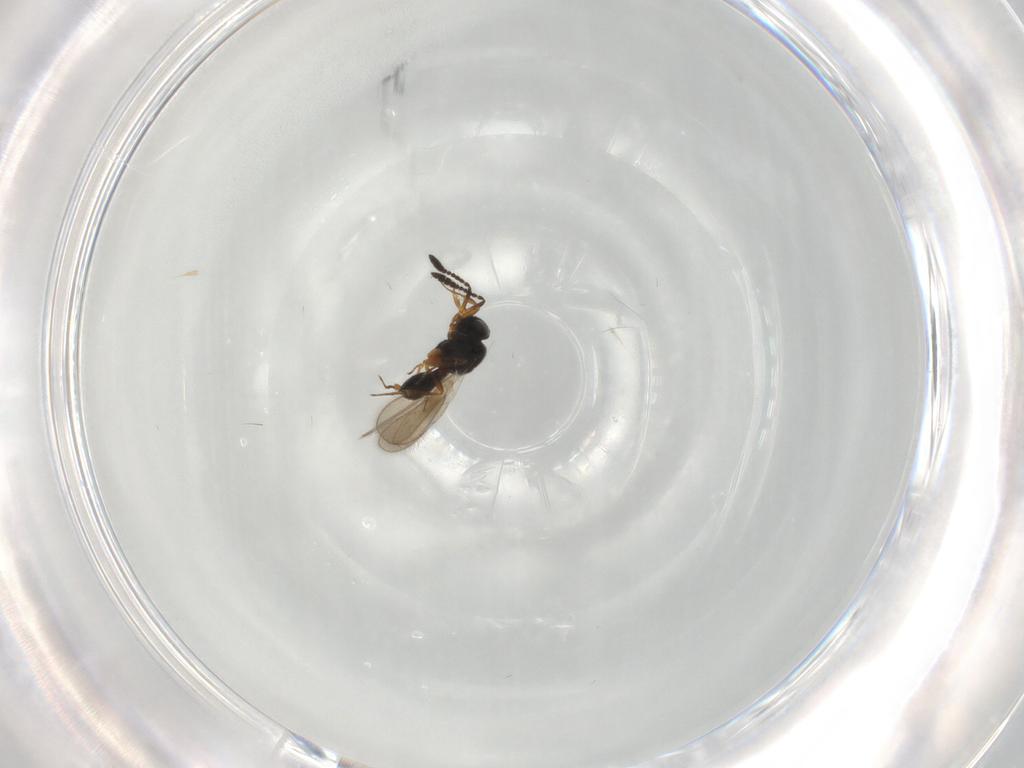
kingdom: Animalia
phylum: Arthropoda
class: Insecta
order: Hymenoptera
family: Scelionidae
